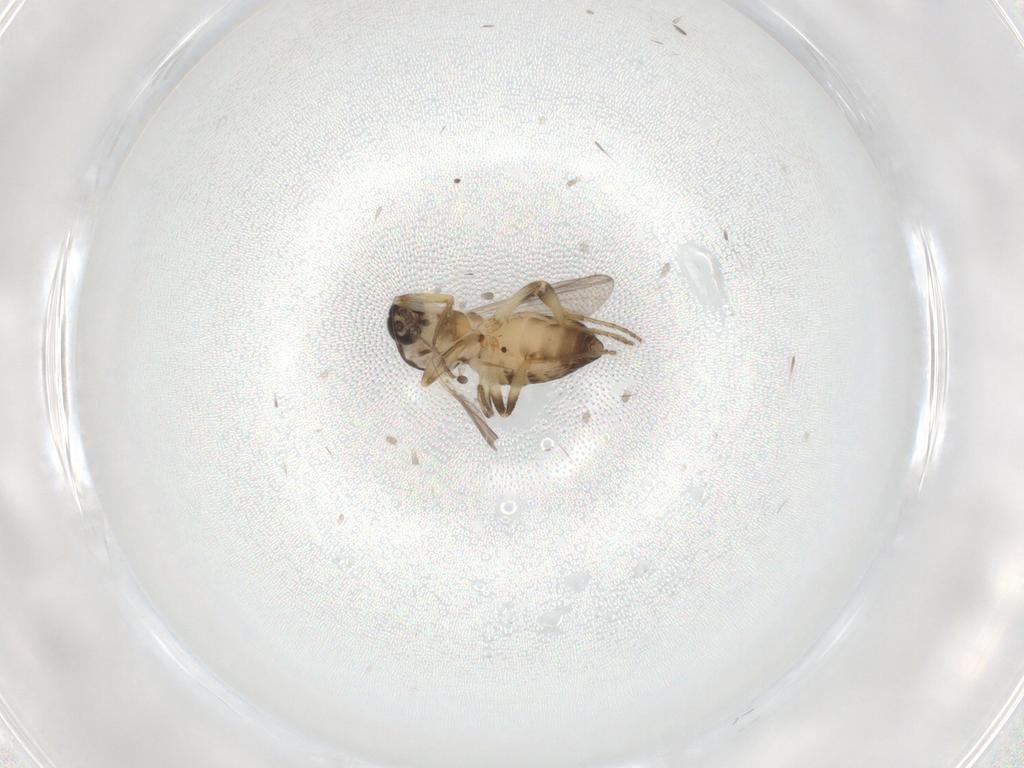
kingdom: Animalia
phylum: Arthropoda
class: Insecta
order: Diptera
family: Ceratopogonidae
